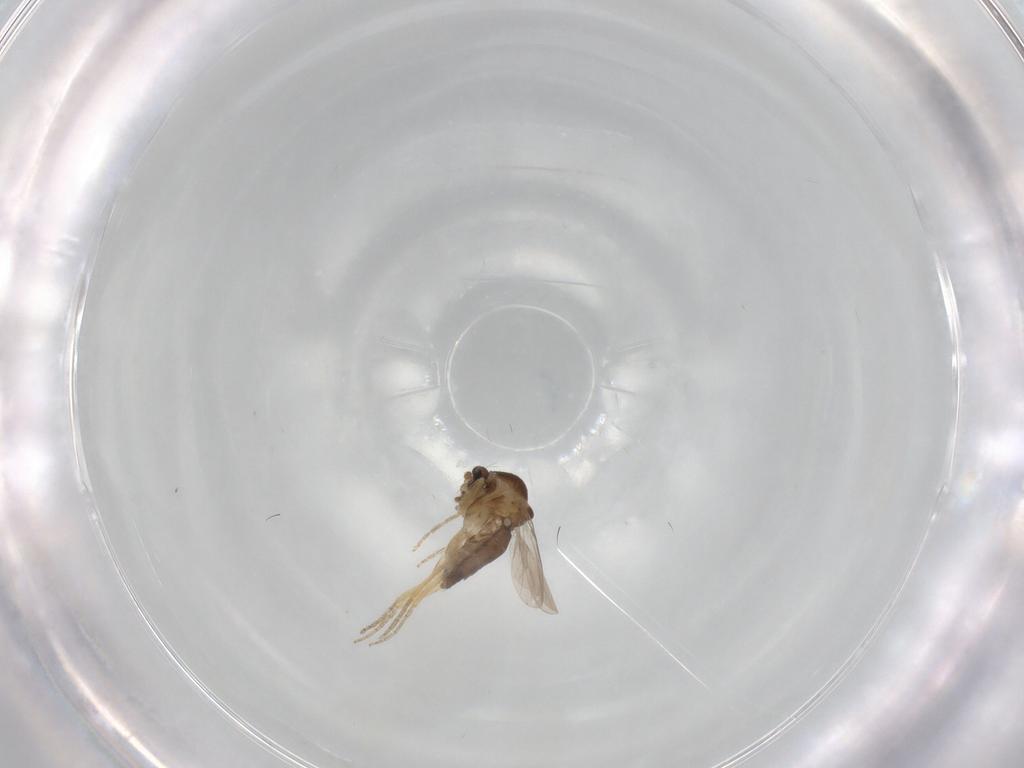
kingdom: Animalia
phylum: Arthropoda
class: Insecta
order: Diptera
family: Ceratopogonidae
